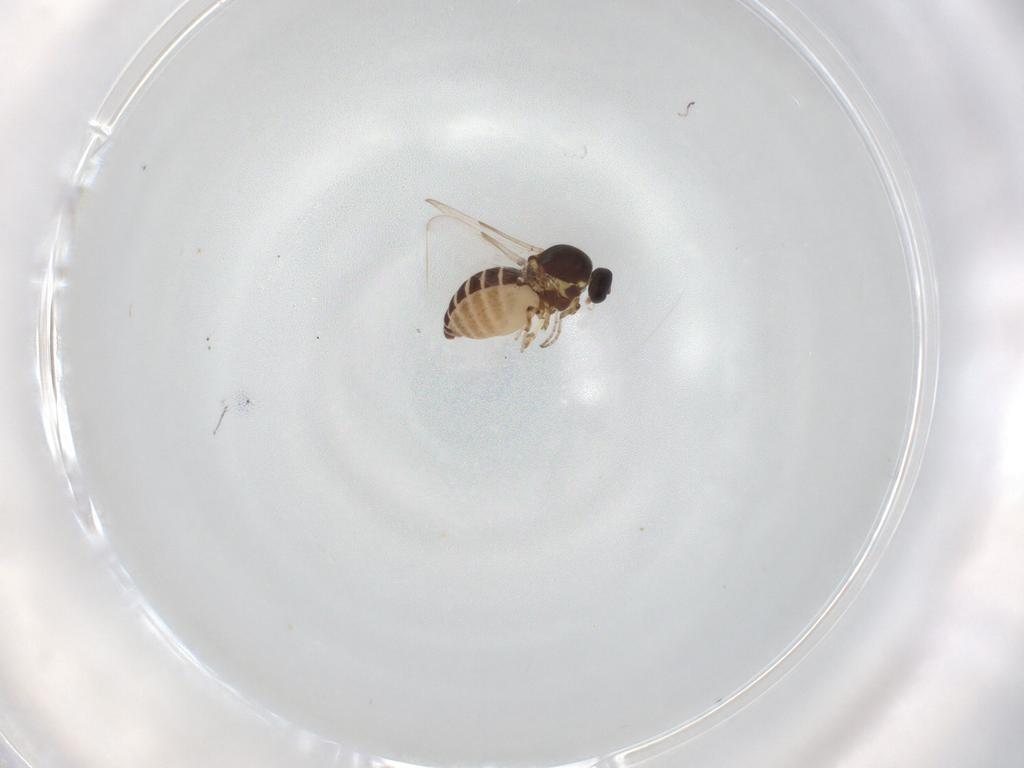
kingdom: Animalia
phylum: Arthropoda
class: Insecta
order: Diptera
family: Ceratopogonidae
